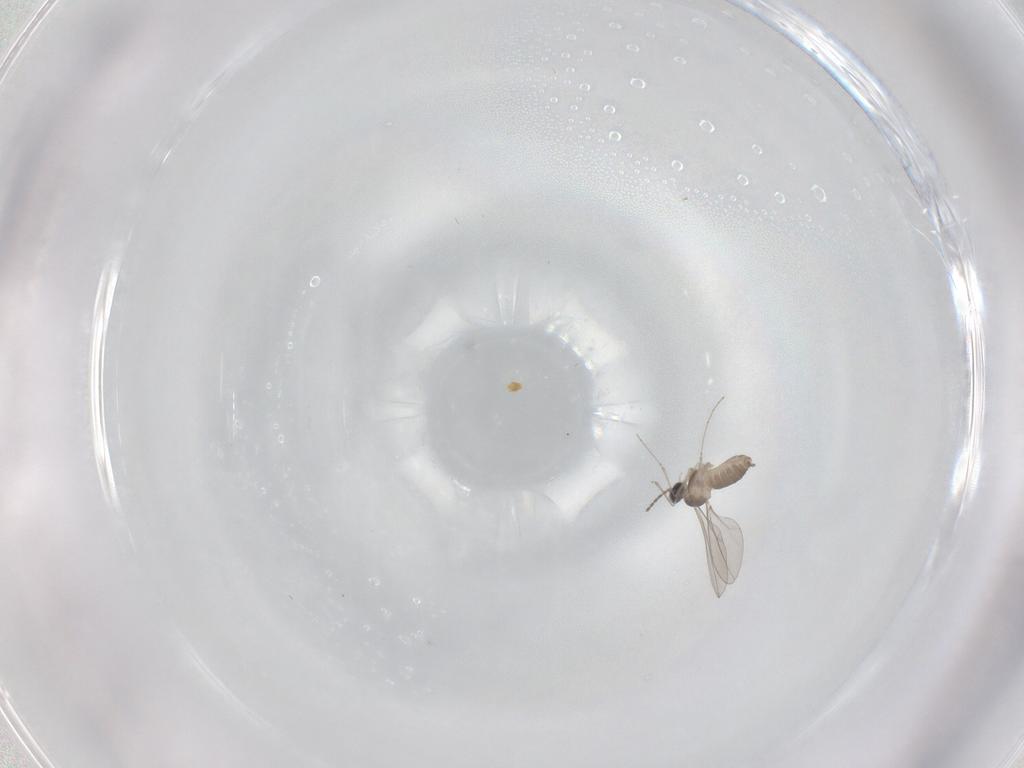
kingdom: Animalia
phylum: Arthropoda
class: Insecta
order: Diptera
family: Cecidomyiidae
